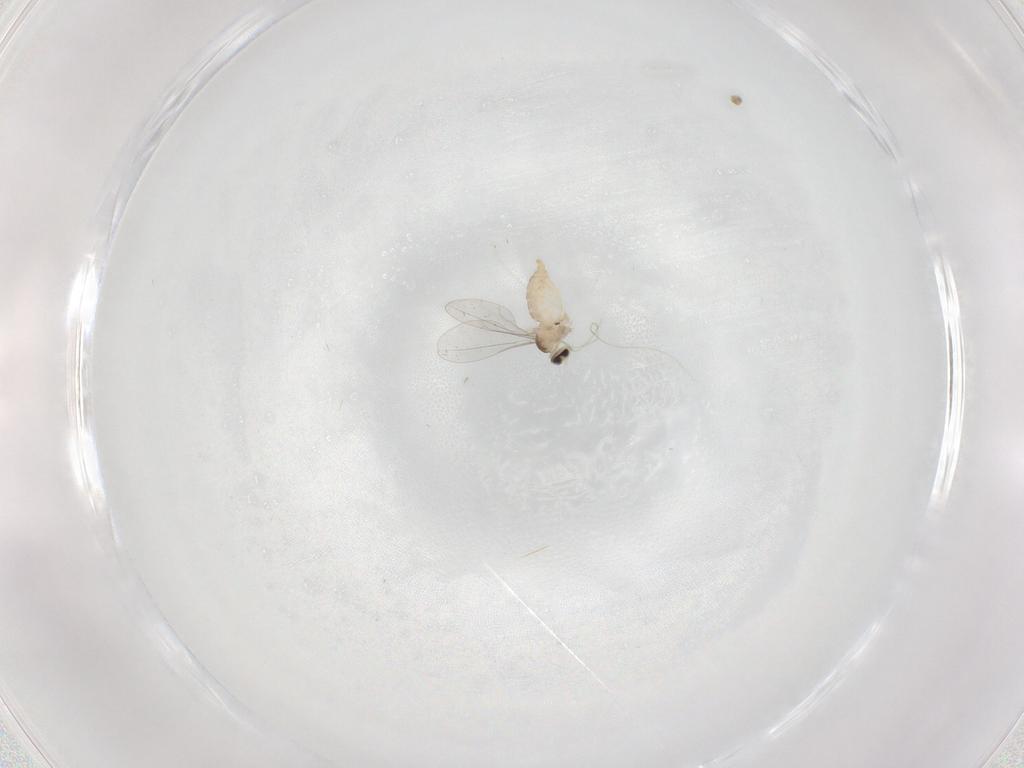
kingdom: Animalia
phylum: Arthropoda
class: Insecta
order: Diptera
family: Cecidomyiidae
